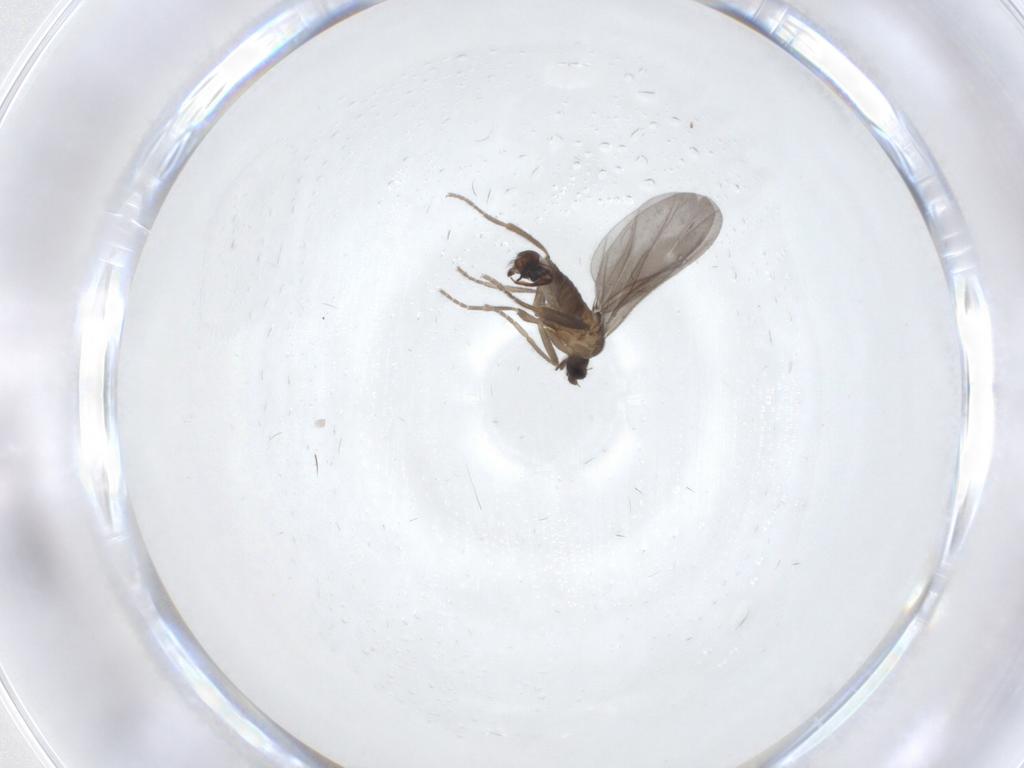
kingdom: Animalia
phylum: Arthropoda
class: Insecta
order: Diptera
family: Phoridae
